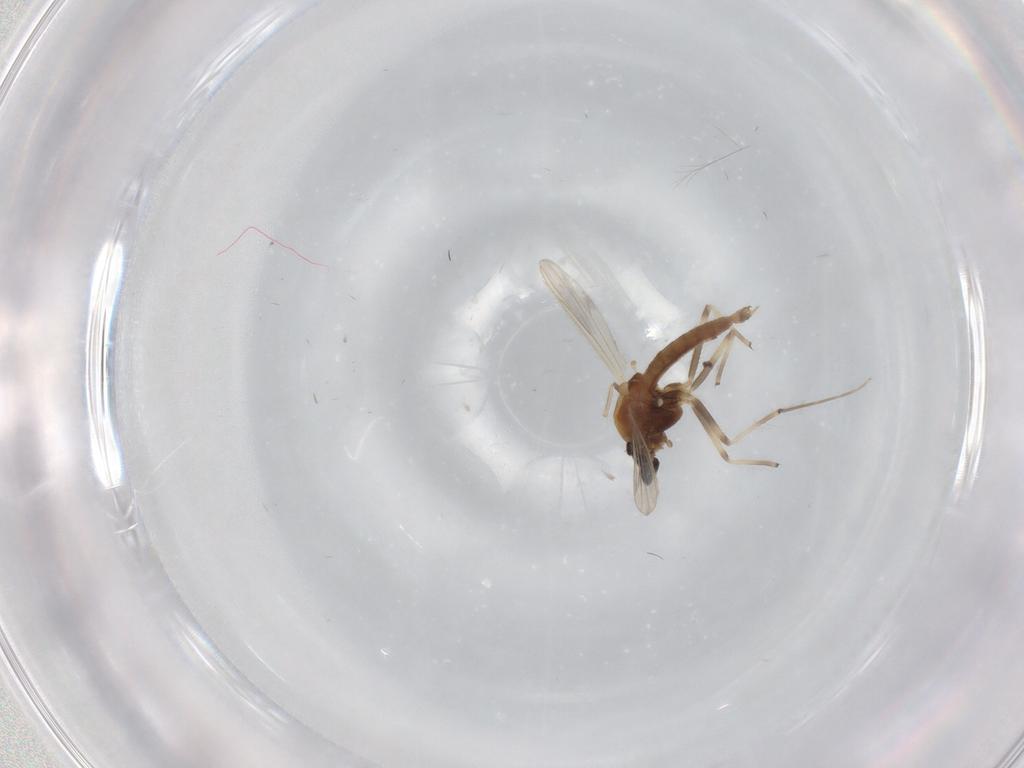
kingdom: Animalia
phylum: Arthropoda
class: Insecta
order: Diptera
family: Chironomidae
